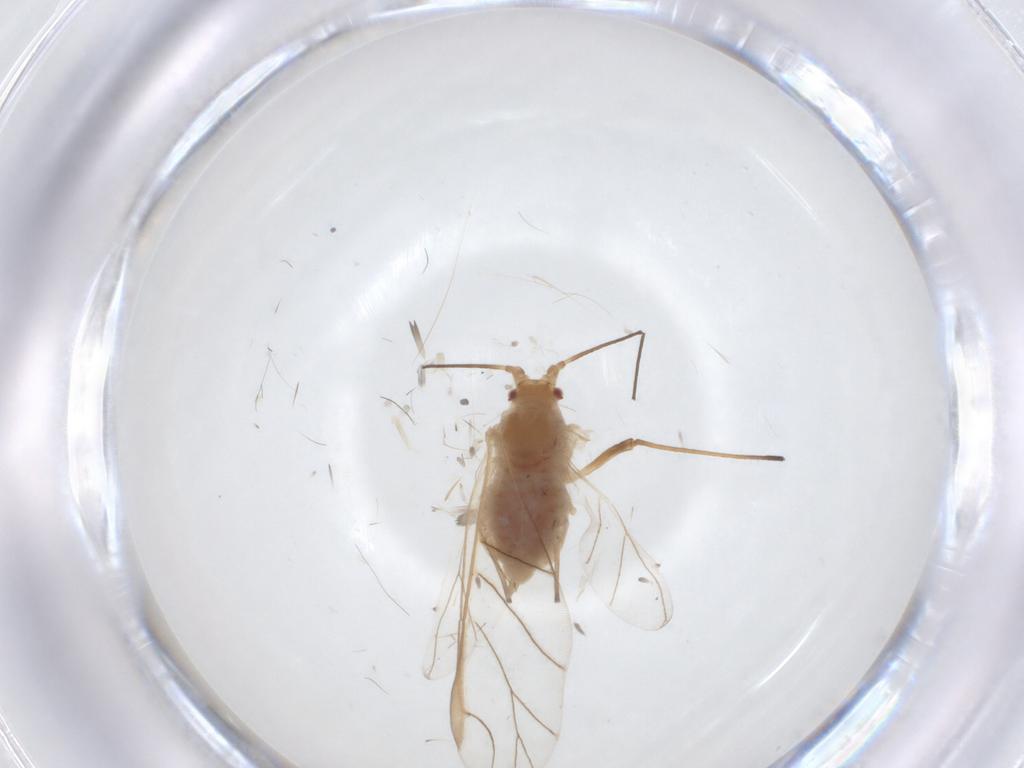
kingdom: Animalia
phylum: Arthropoda
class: Insecta
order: Hemiptera
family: Aphididae
